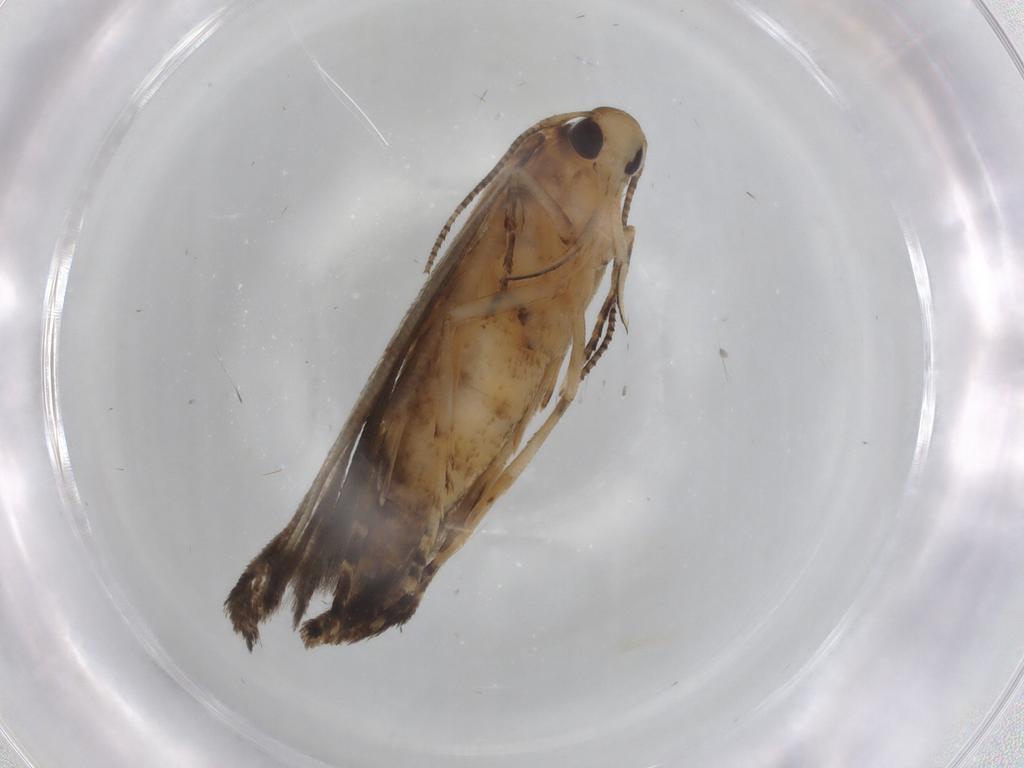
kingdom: Animalia
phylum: Arthropoda
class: Insecta
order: Lepidoptera
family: Cosmopterigidae
